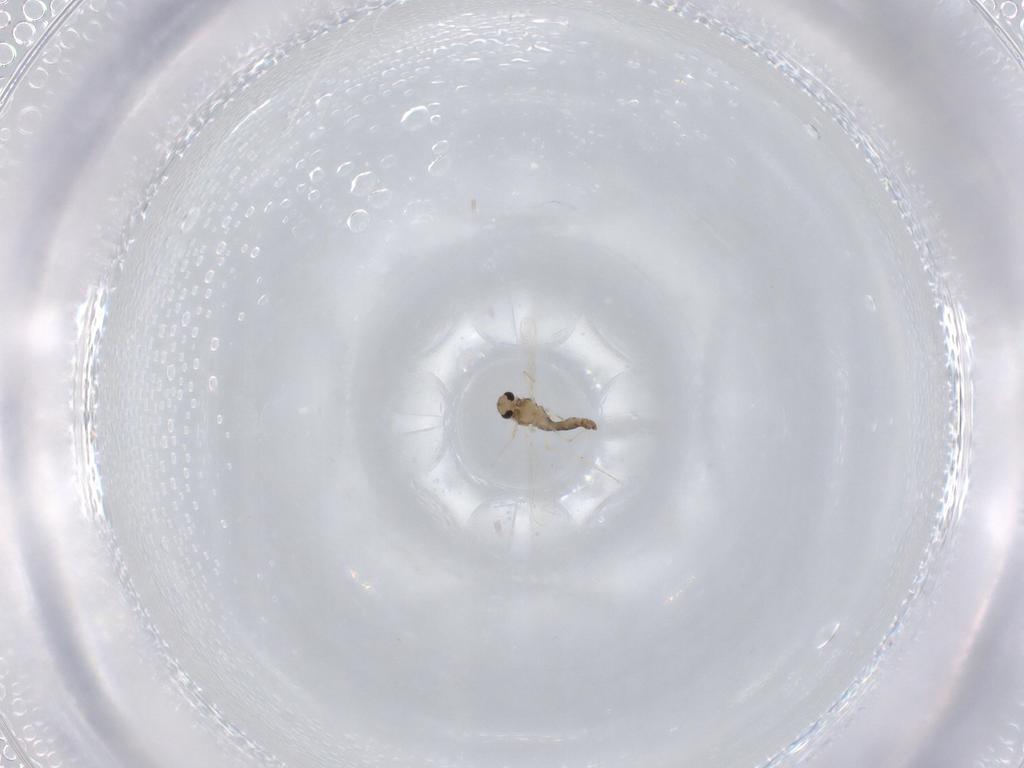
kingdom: Animalia
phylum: Arthropoda
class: Insecta
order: Diptera
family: Chironomidae
